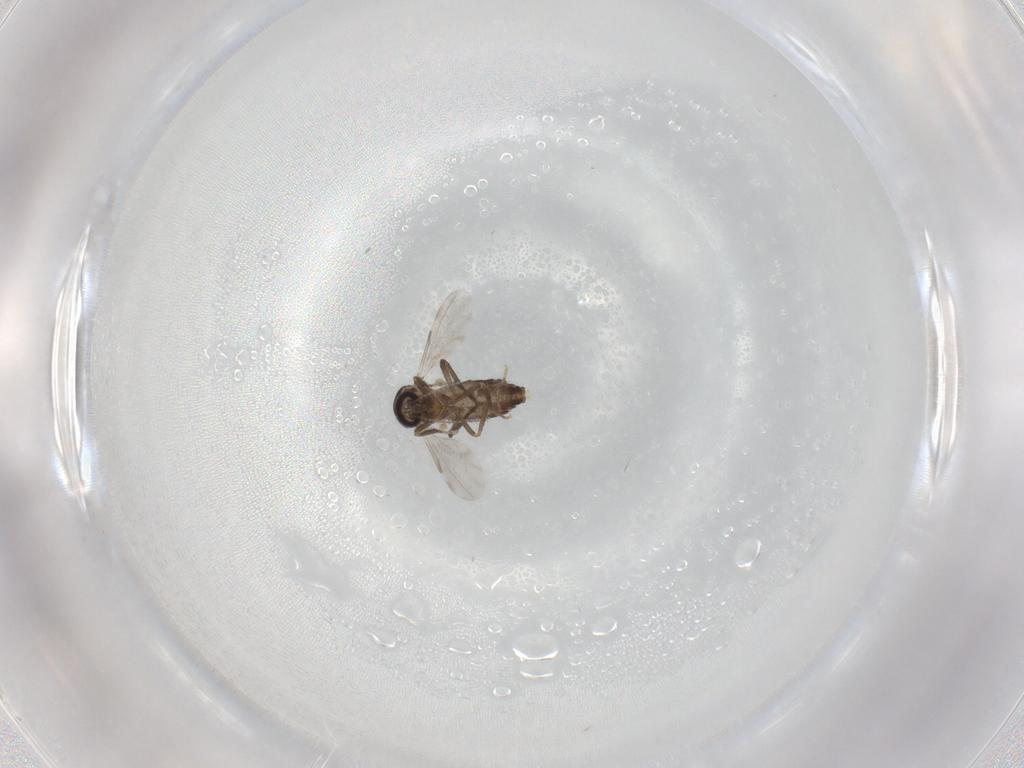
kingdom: Animalia
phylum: Arthropoda
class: Insecta
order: Diptera
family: Ceratopogonidae
